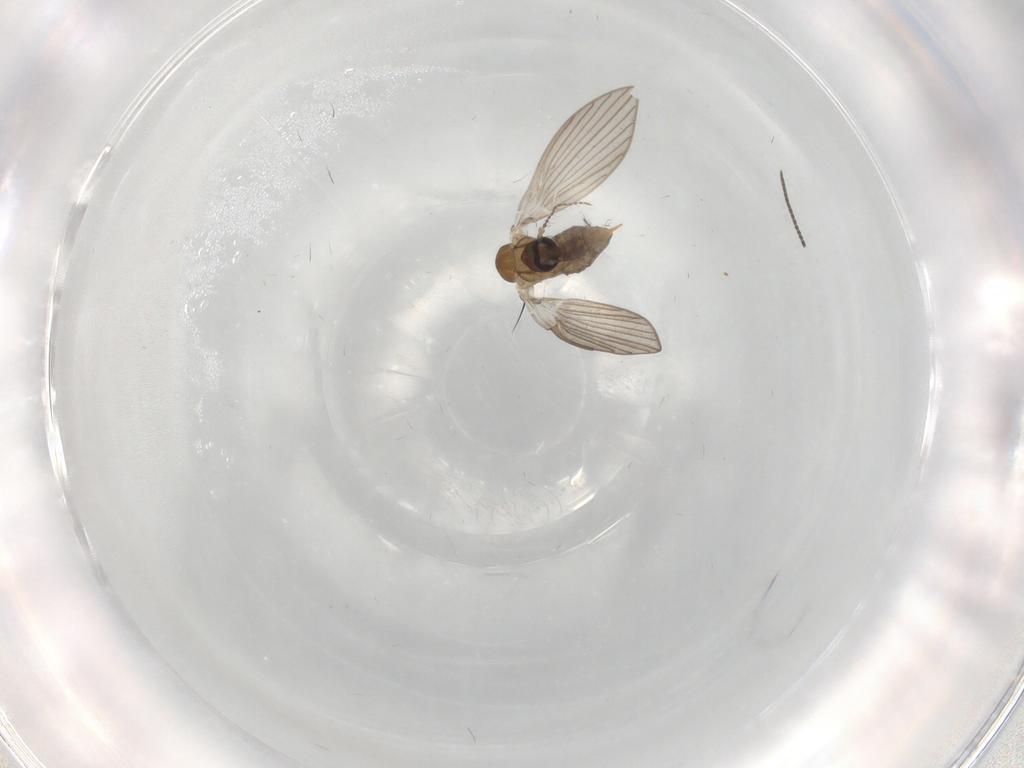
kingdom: Animalia
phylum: Arthropoda
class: Insecta
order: Diptera
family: Psychodidae
